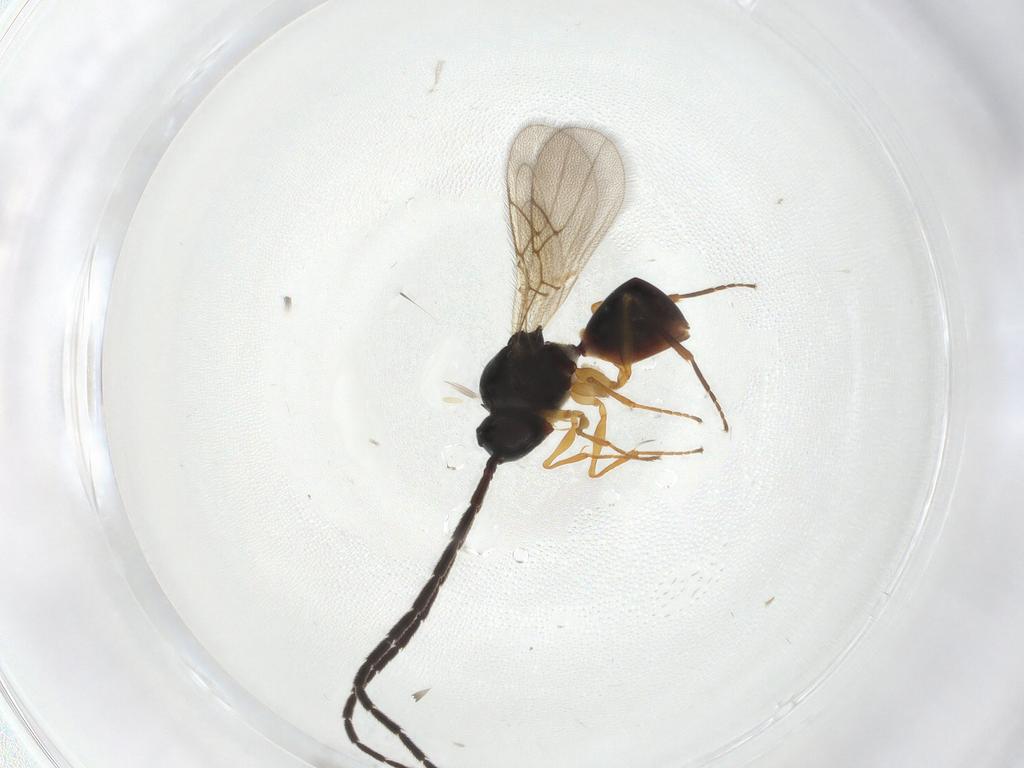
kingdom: Animalia
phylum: Arthropoda
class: Insecta
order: Hymenoptera
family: Figitidae
